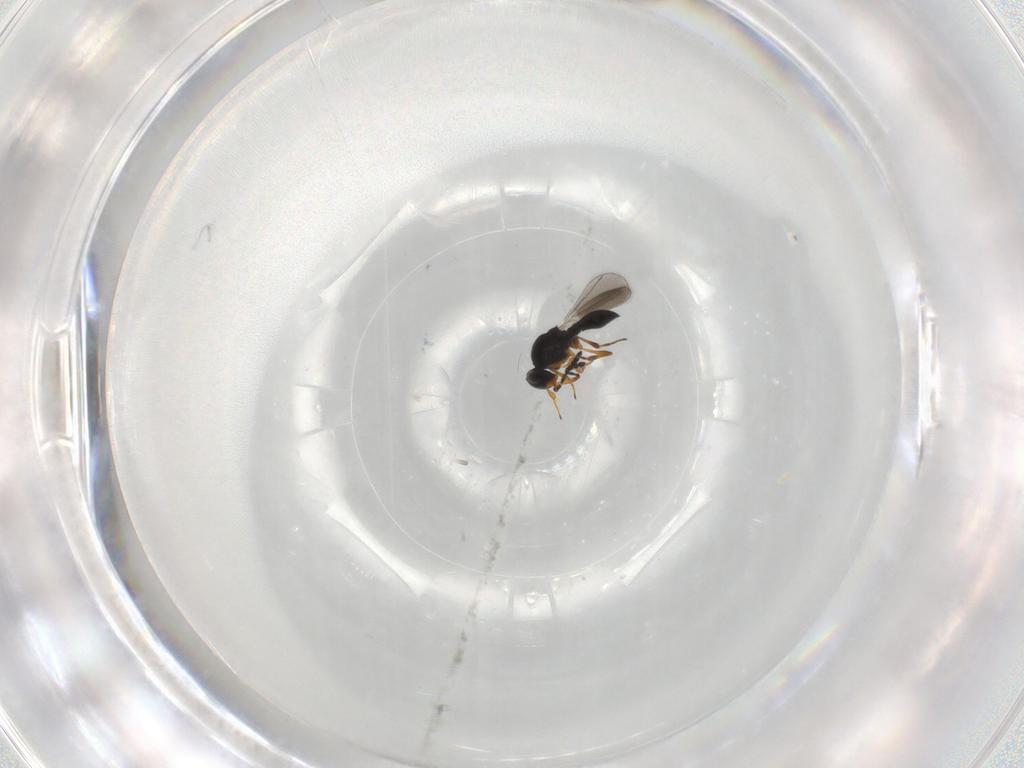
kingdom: Animalia
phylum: Arthropoda
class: Insecta
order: Hymenoptera
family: Platygastridae
